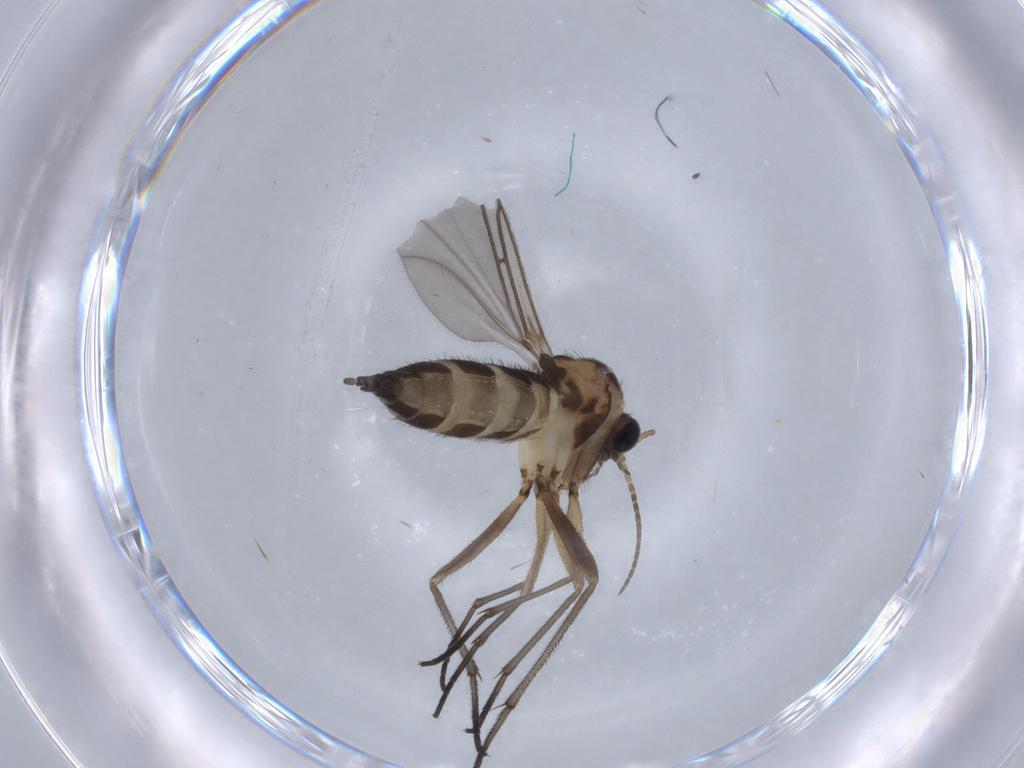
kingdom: Animalia
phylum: Arthropoda
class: Insecta
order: Diptera
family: Sciaridae
